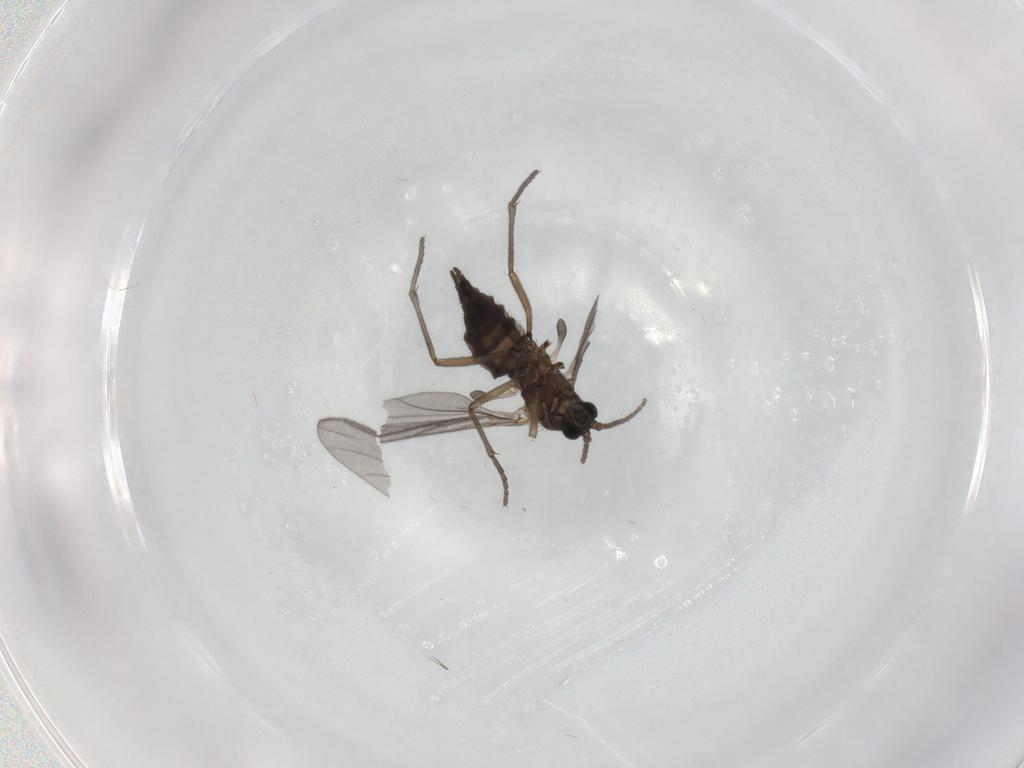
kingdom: Animalia
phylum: Arthropoda
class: Insecta
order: Diptera
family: Sciaridae
